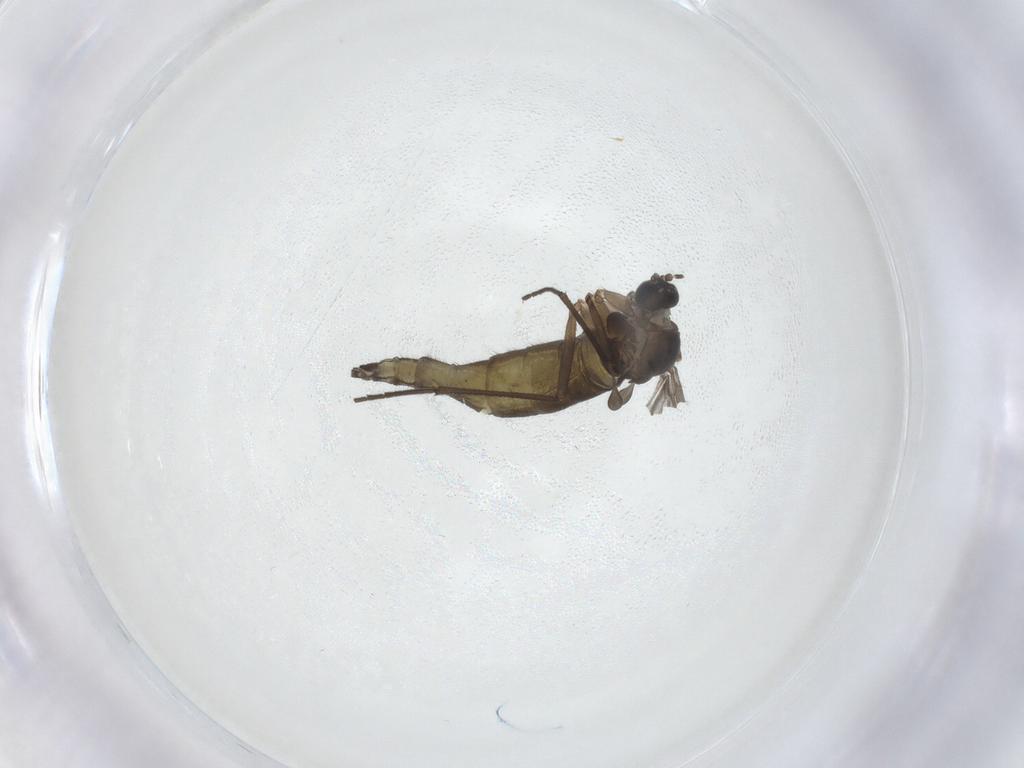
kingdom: Animalia
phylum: Arthropoda
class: Insecta
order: Diptera
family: Sciaridae
